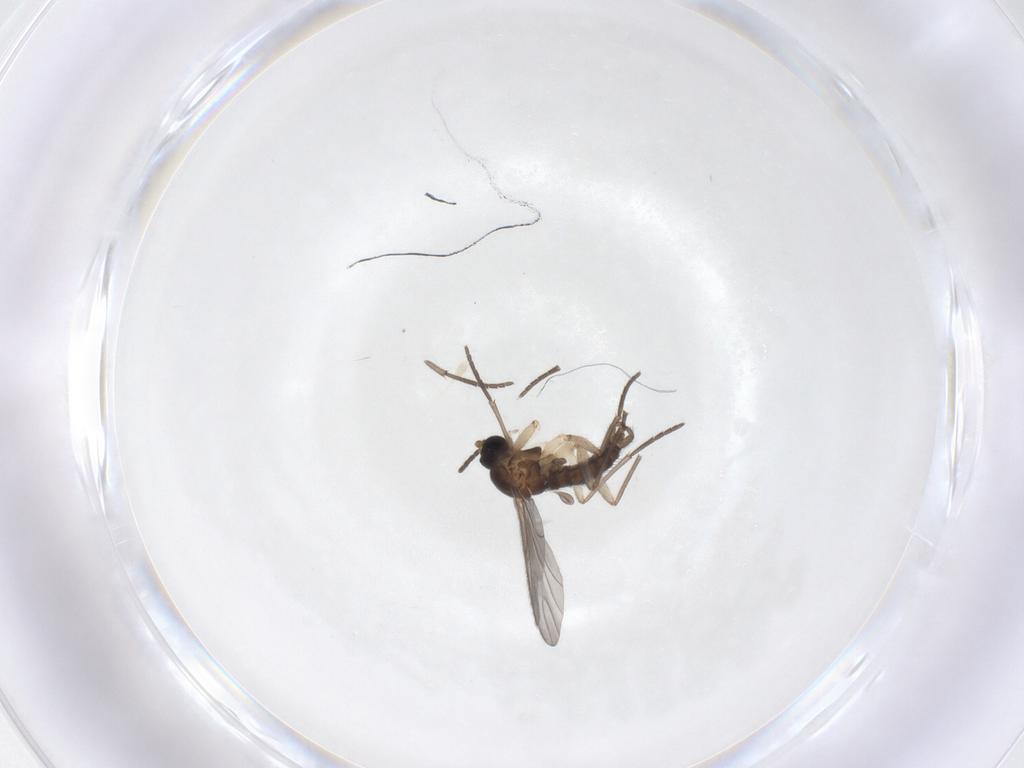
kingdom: Animalia
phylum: Arthropoda
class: Insecta
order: Diptera
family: Sciaridae
